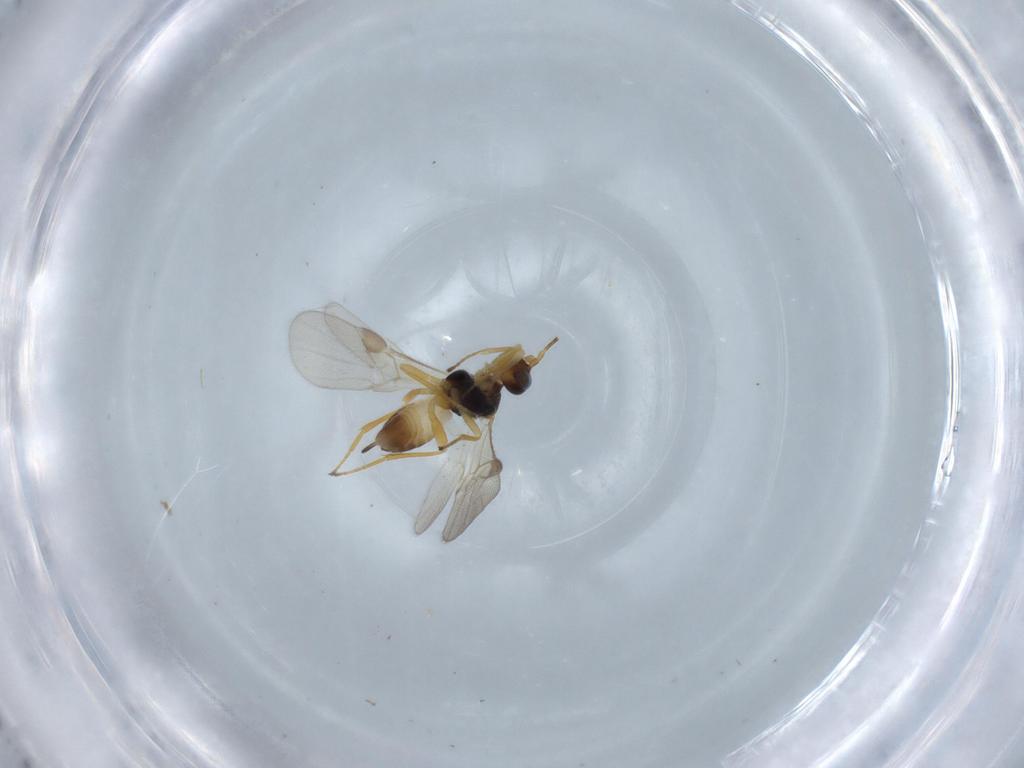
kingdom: Animalia
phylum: Arthropoda
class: Insecta
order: Hymenoptera
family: Braconidae
